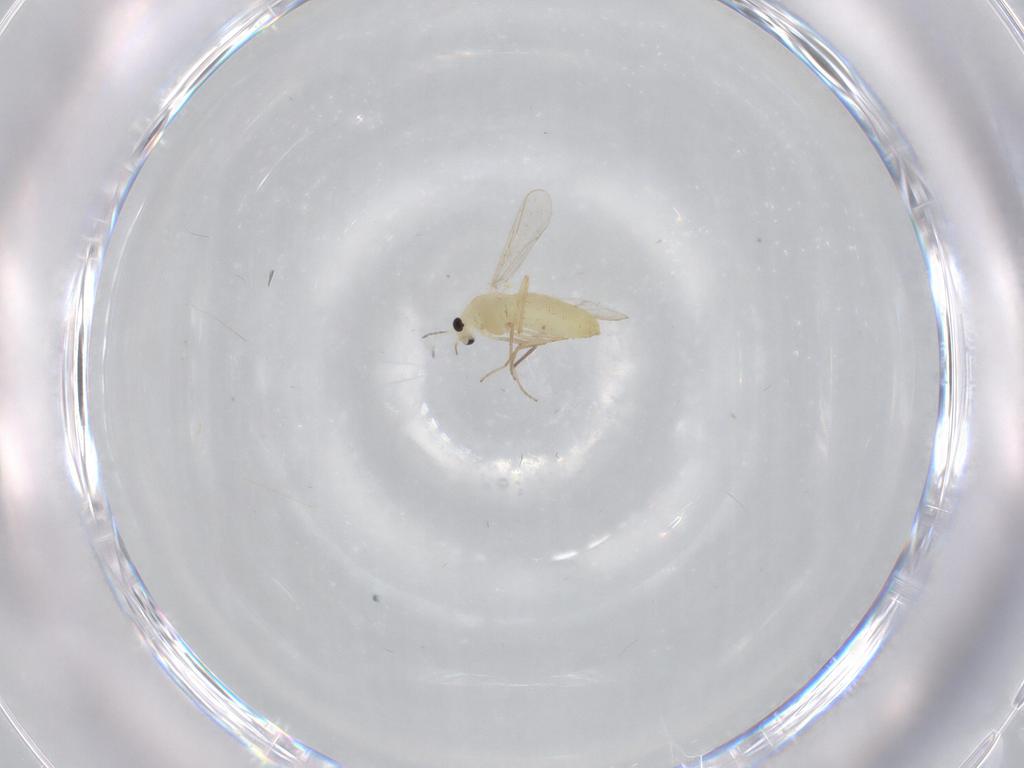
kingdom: Animalia
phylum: Arthropoda
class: Insecta
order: Diptera
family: Chironomidae
